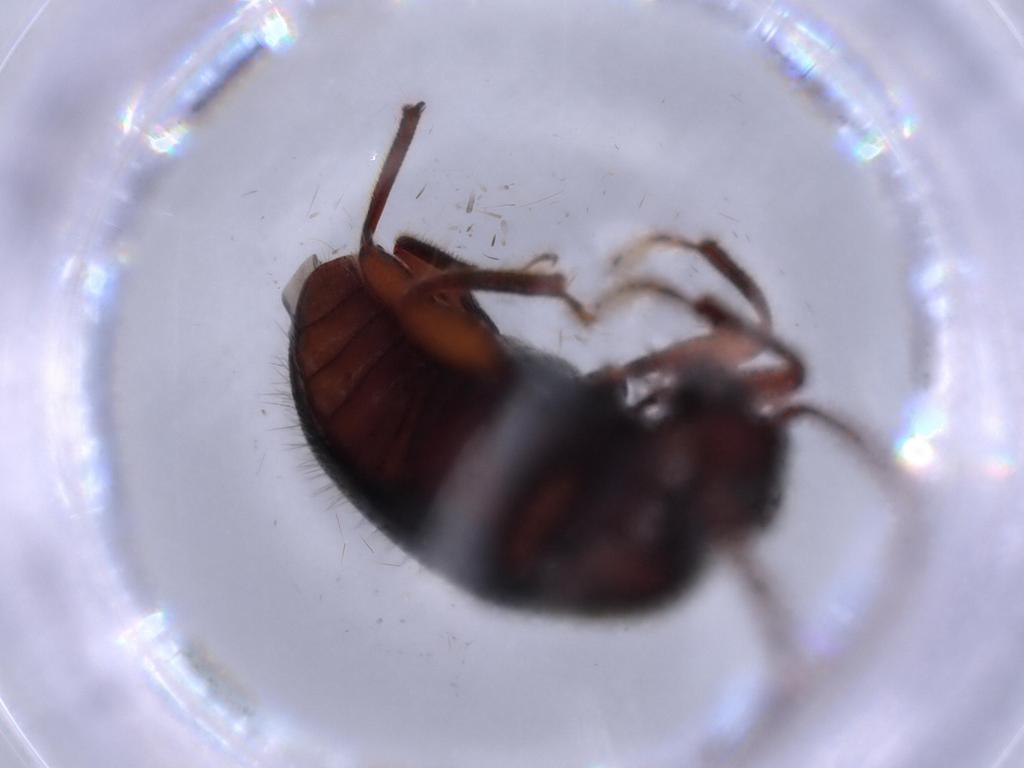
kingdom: Animalia
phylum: Arthropoda
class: Insecta
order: Coleoptera
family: Artematopodidae
